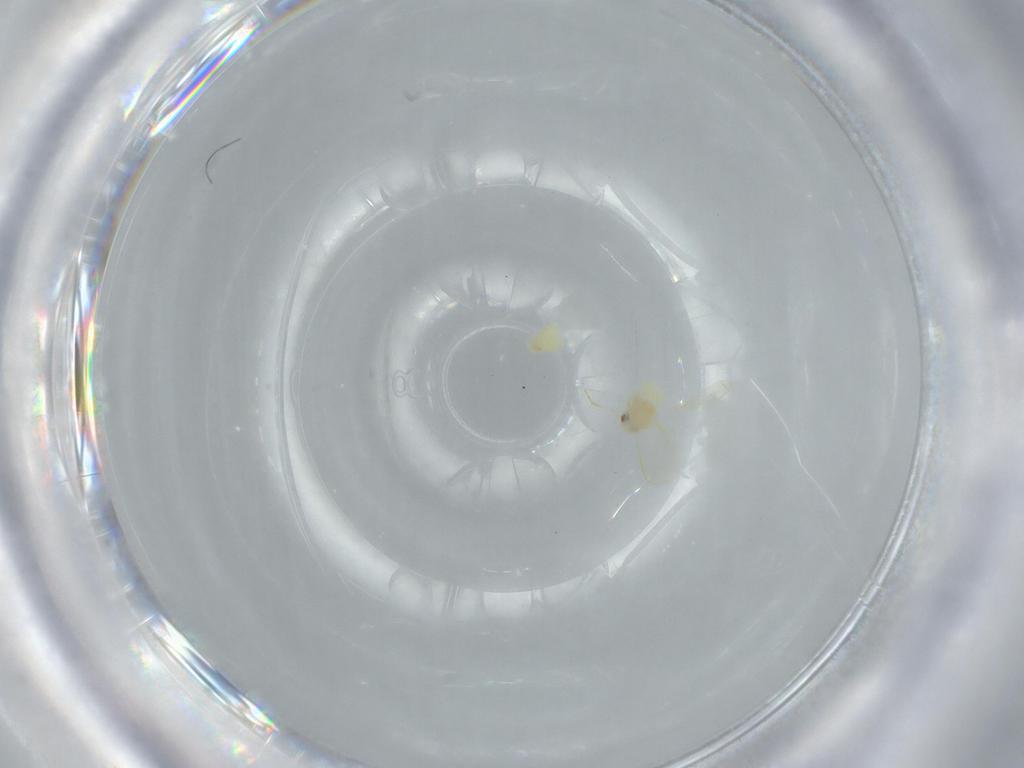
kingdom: Animalia
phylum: Arthropoda
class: Insecta
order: Hemiptera
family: Aleyrodidae
